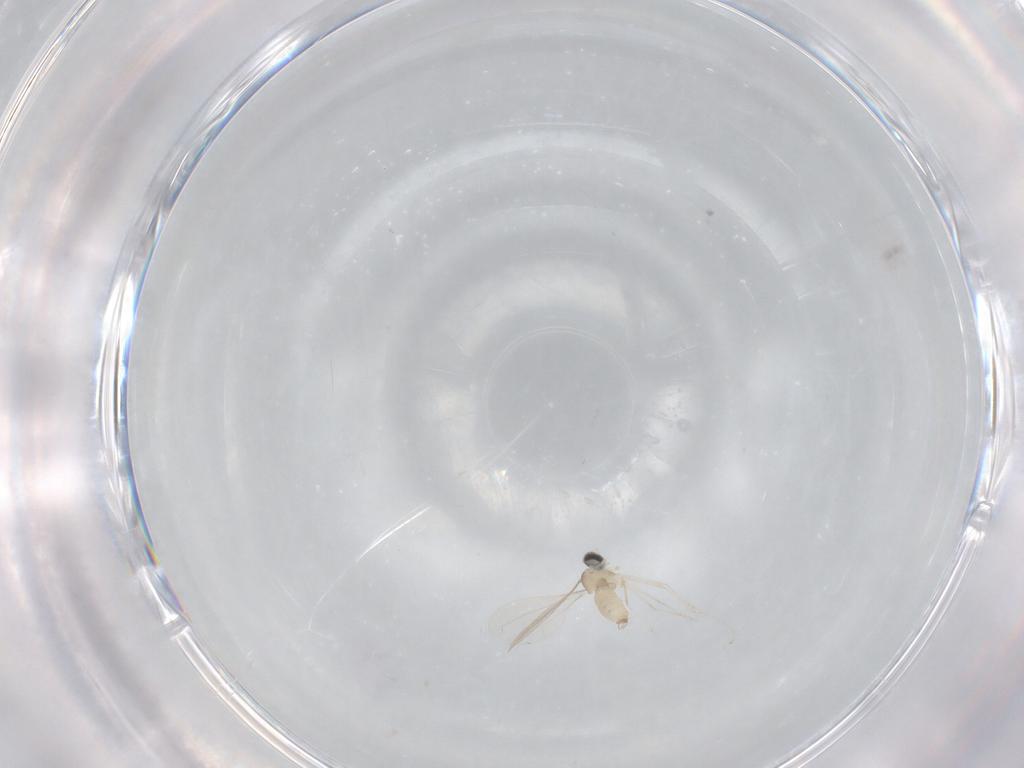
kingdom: Animalia
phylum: Arthropoda
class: Insecta
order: Diptera
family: Cecidomyiidae
